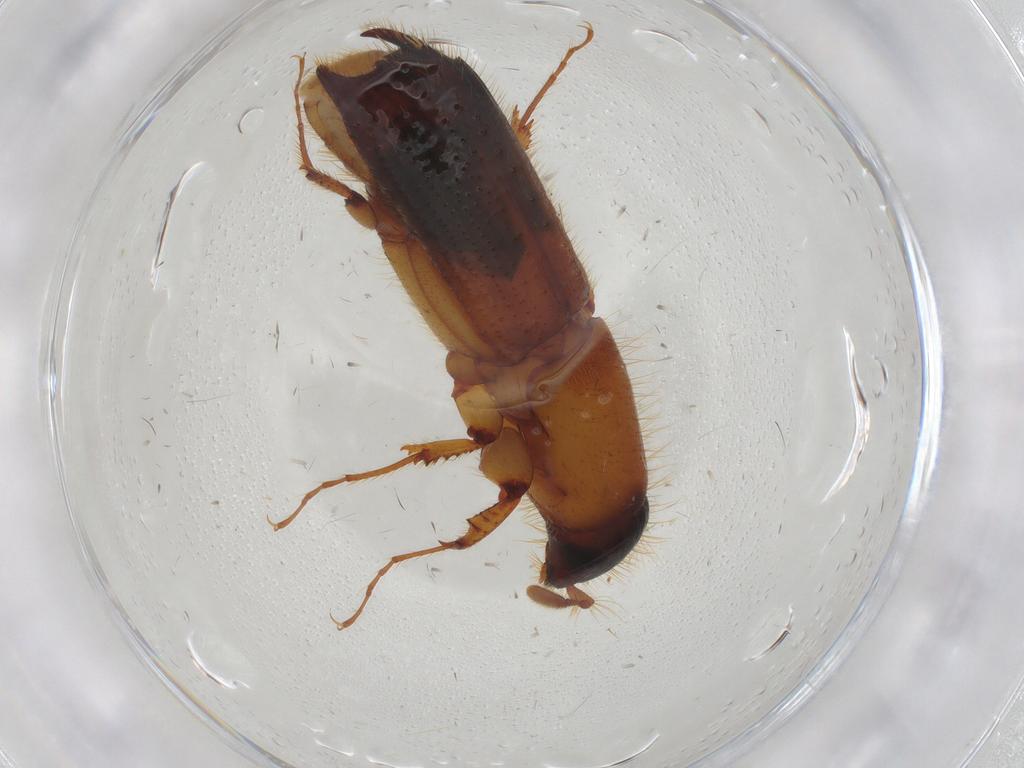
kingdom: Animalia
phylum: Arthropoda
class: Insecta
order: Coleoptera
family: Curculionidae
